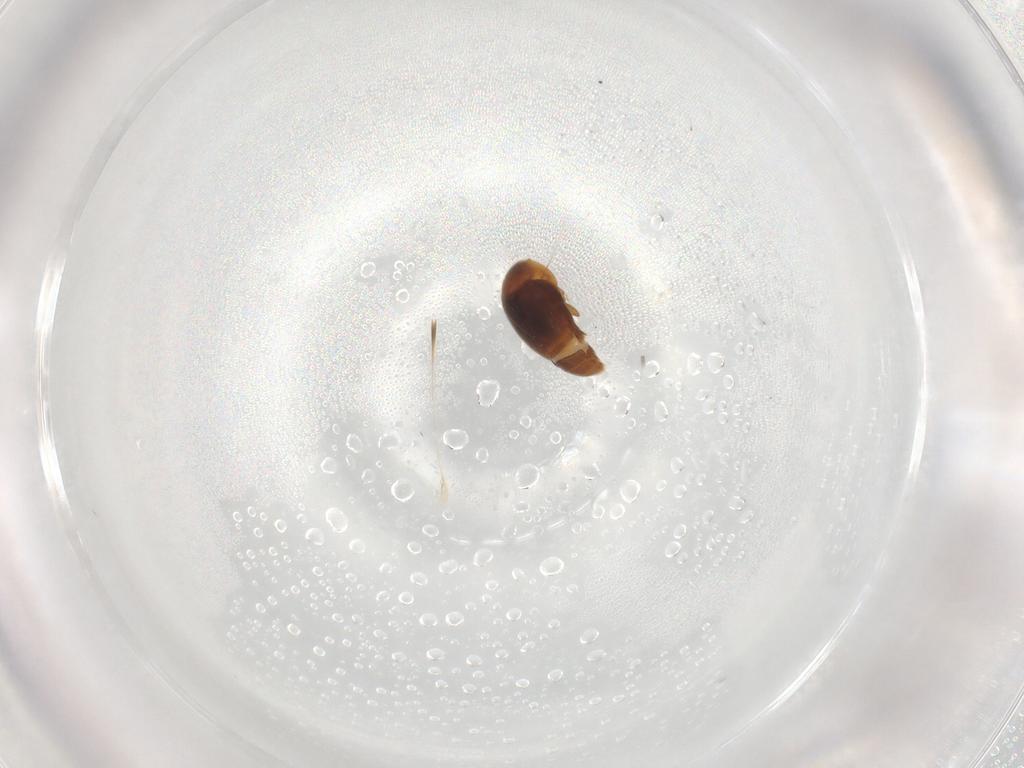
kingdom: Animalia
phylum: Arthropoda
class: Insecta
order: Coleoptera
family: Corylophidae
